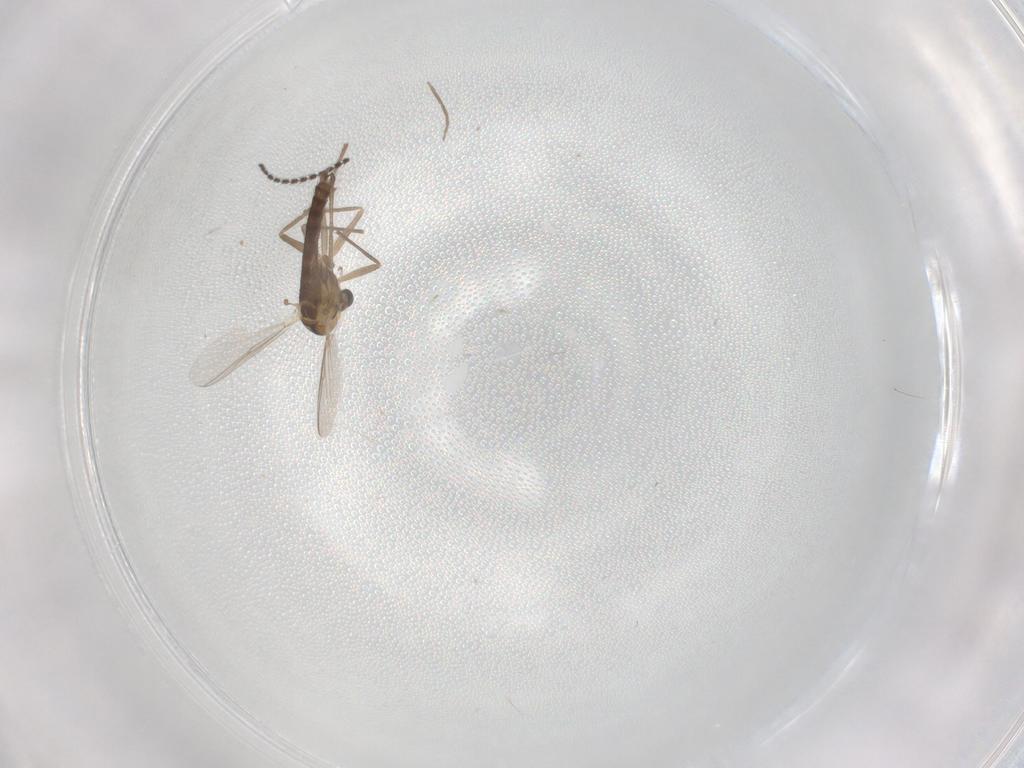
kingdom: Animalia
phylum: Arthropoda
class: Insecta
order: Diptera
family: Chironomidae
